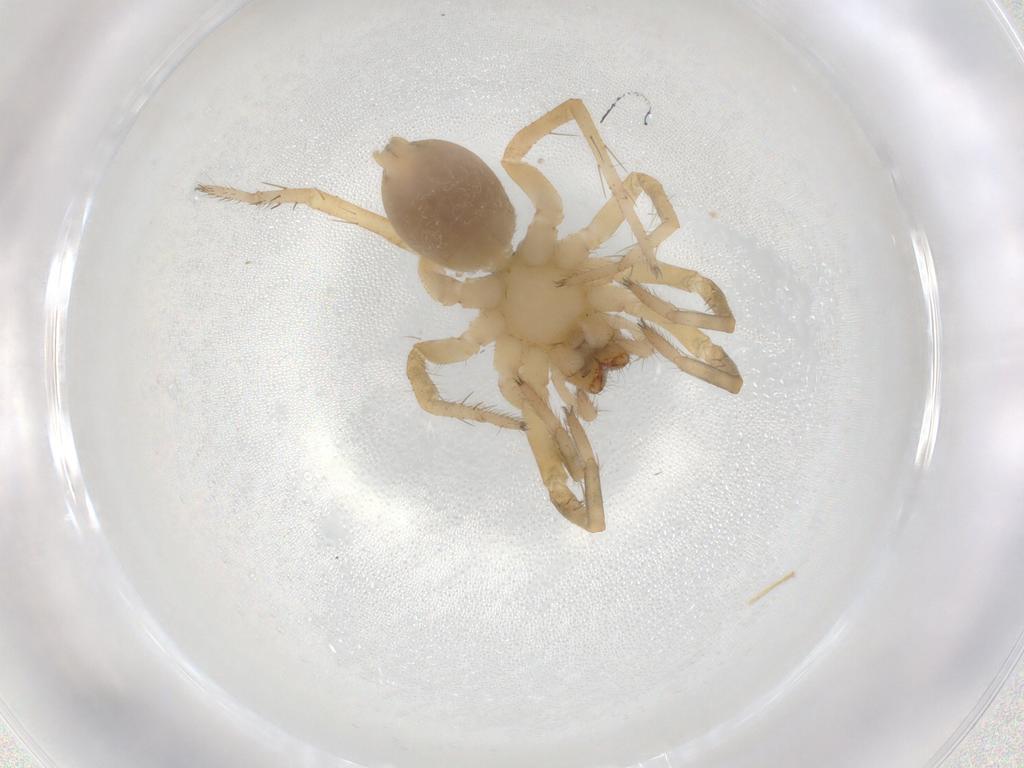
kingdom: Animalia
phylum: Arthropoda
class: Arachnida
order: Araneae
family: Lycosidae
